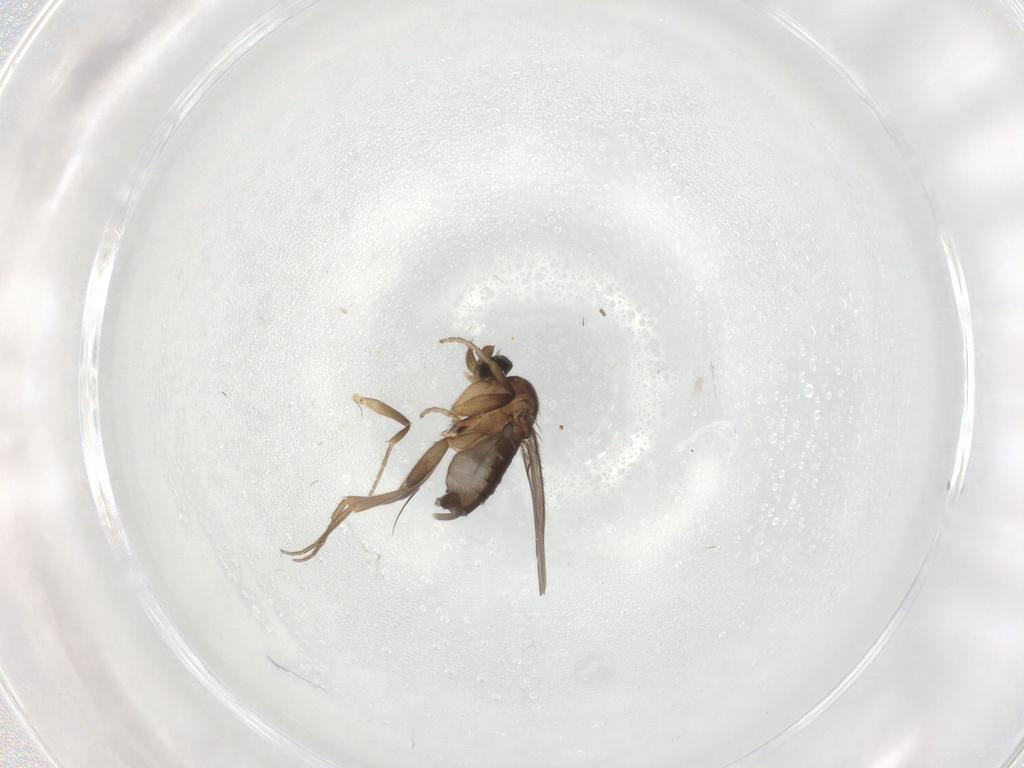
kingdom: Animalia
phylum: Arthropoda
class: Insecta
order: Diptera
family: Phoridae
